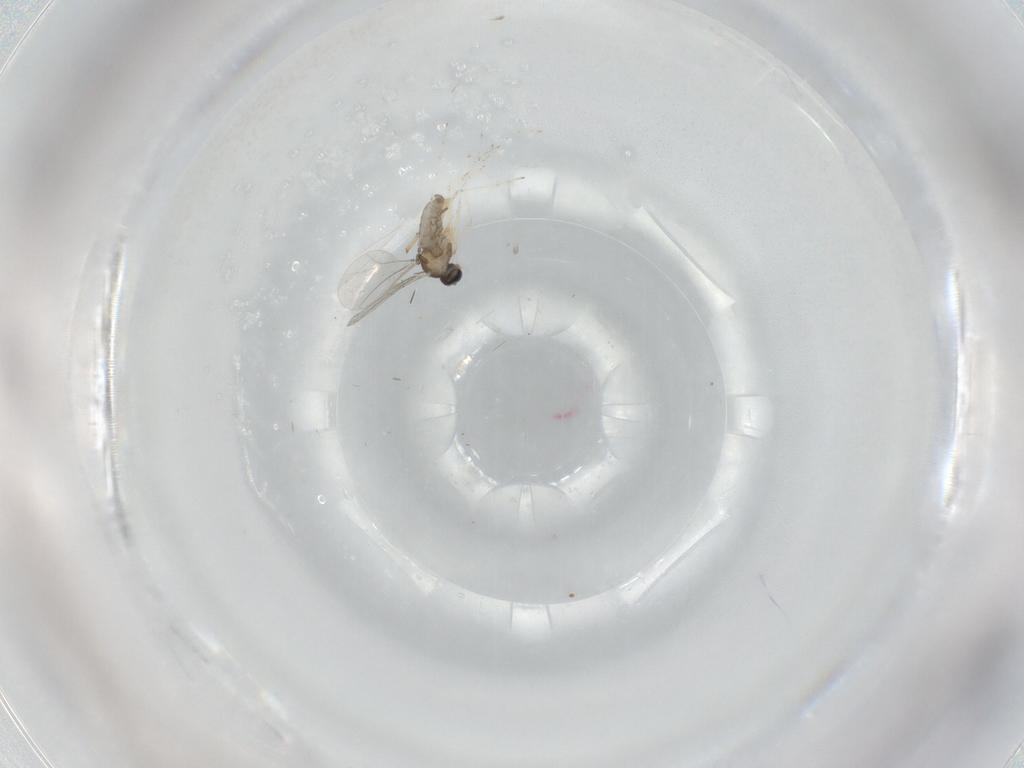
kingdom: Animalia
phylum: Arthropoda
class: Insecta
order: Diptera
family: Cecidomyiidae
